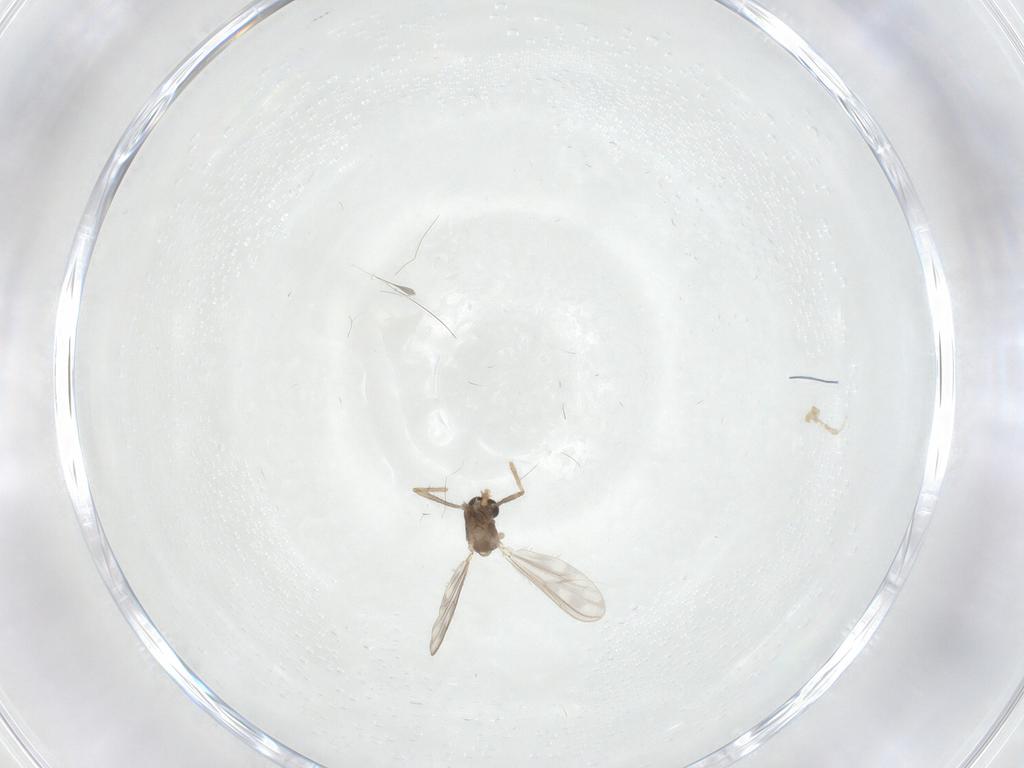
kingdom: Animalia
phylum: Arthropoda
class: Insecta
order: Diptera
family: Chironomidae
